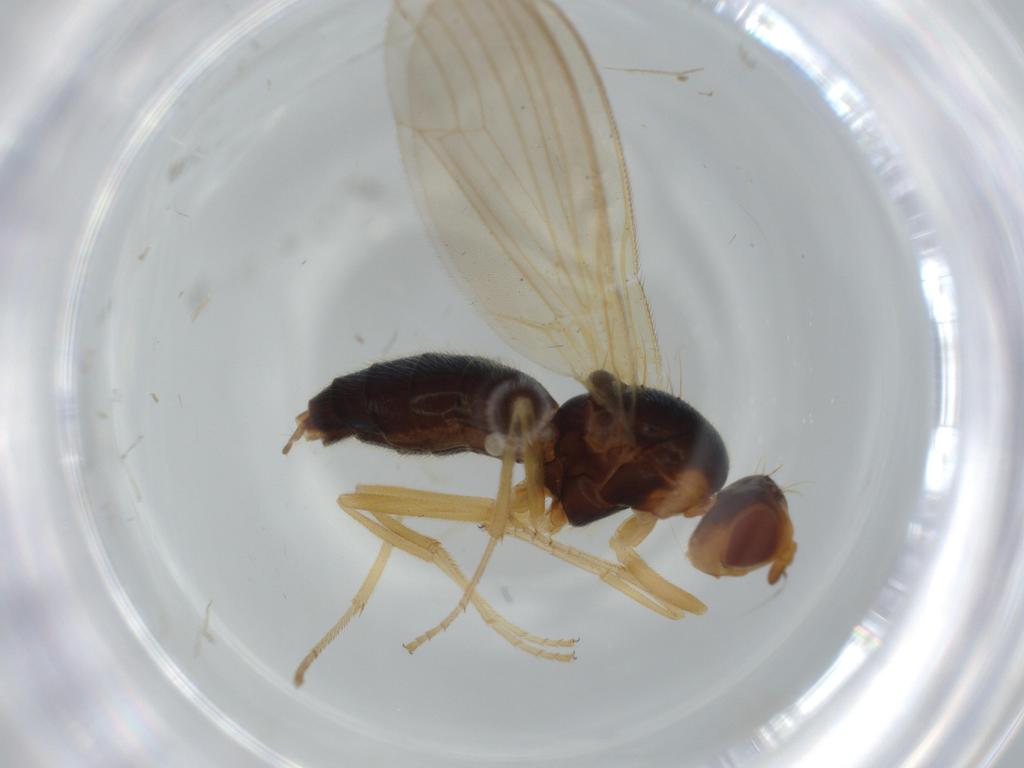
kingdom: Animalia
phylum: Arthropoda
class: Insecta
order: Diptera
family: Psilidae
